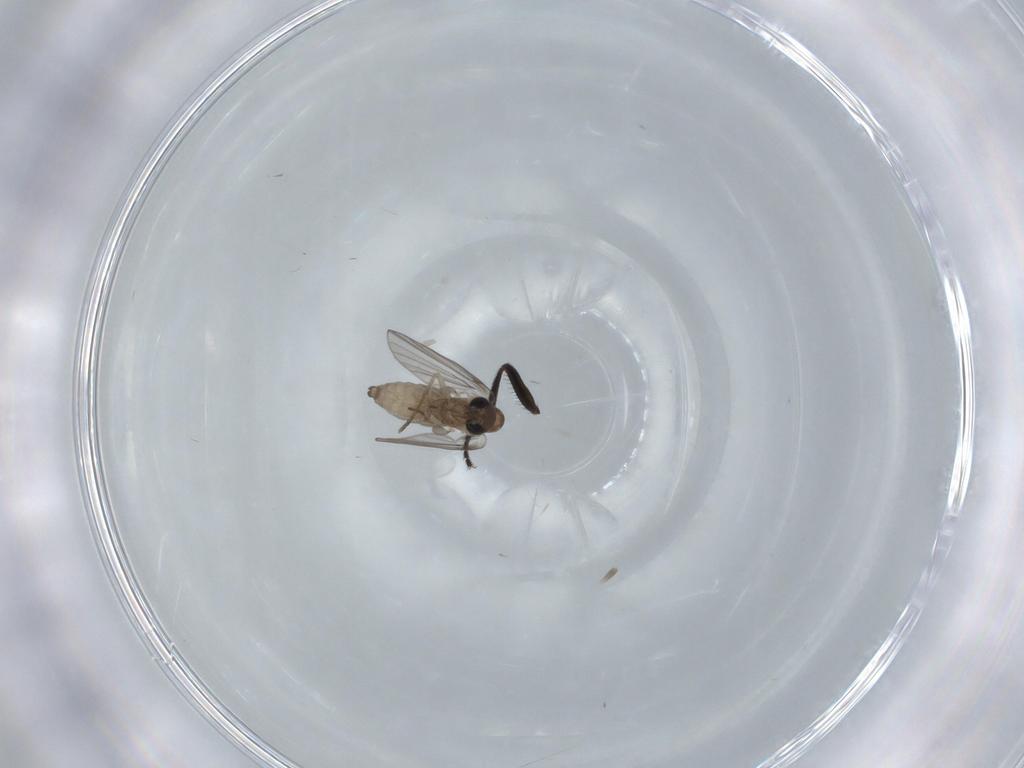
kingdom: Animalia
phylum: Arthropoda
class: Insecta
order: Diptera
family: Psychodidae
